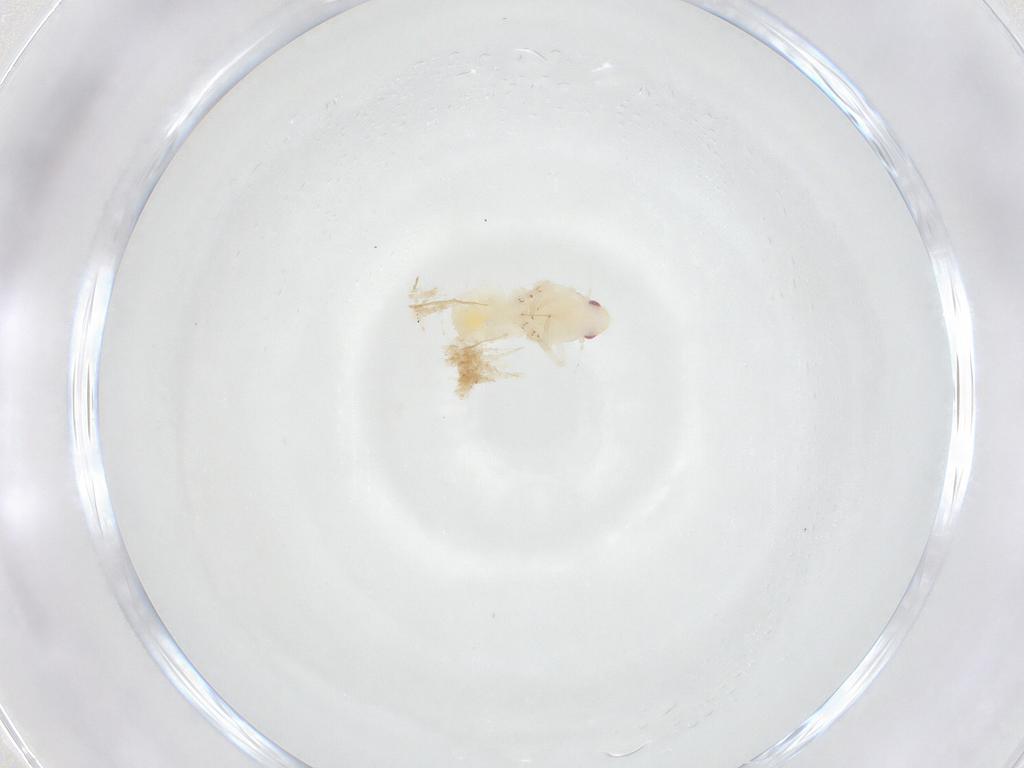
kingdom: Animalia
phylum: Arthropoda
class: Insecta
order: Hemiptera
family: Flatidae
